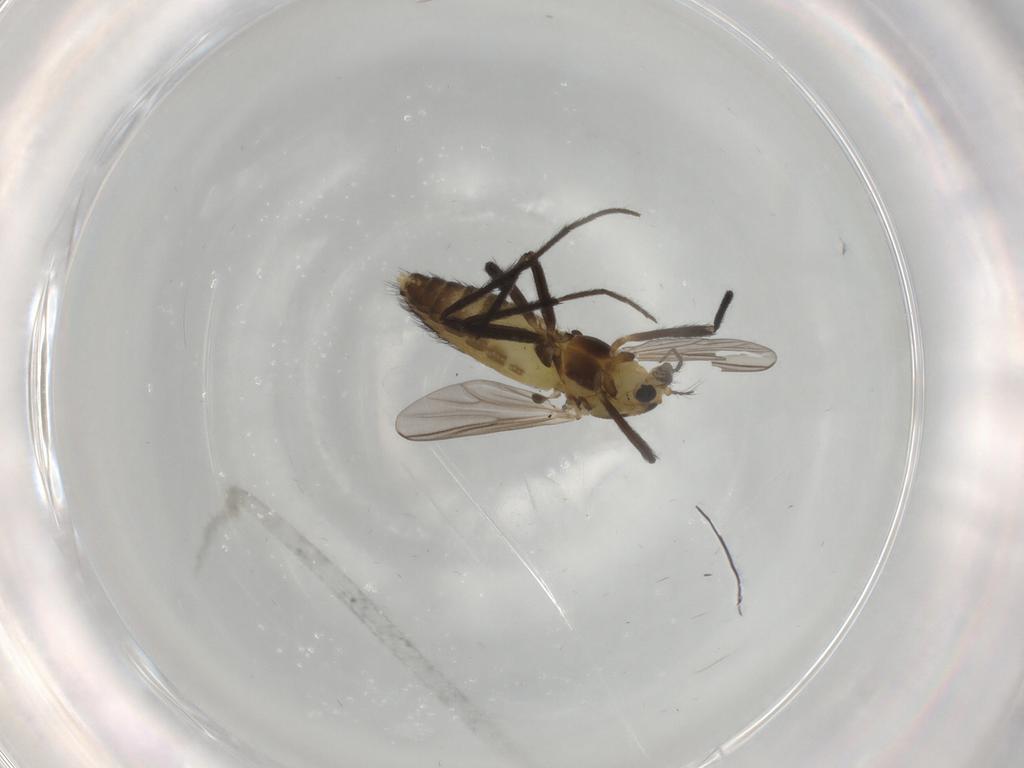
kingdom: Animalia
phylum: Arthropoda
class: Insecta
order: Diptera
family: Chironomidae
